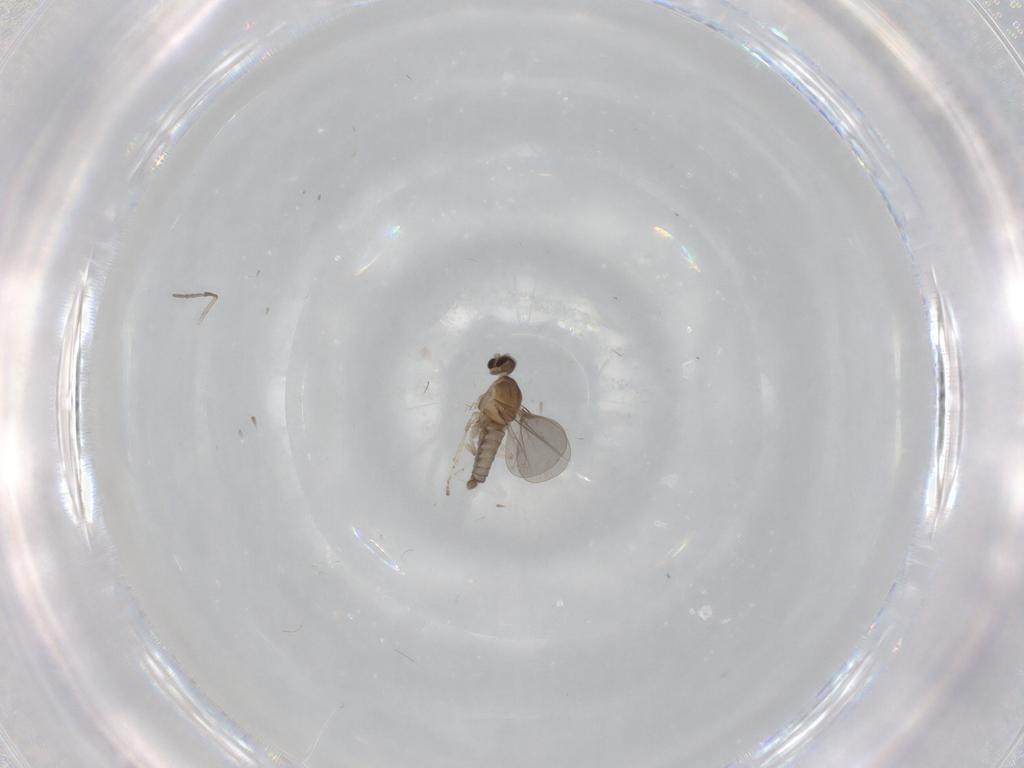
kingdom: Animalia
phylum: Arthropoda
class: Insecta
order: Diptera
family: Cecidomyiidae
